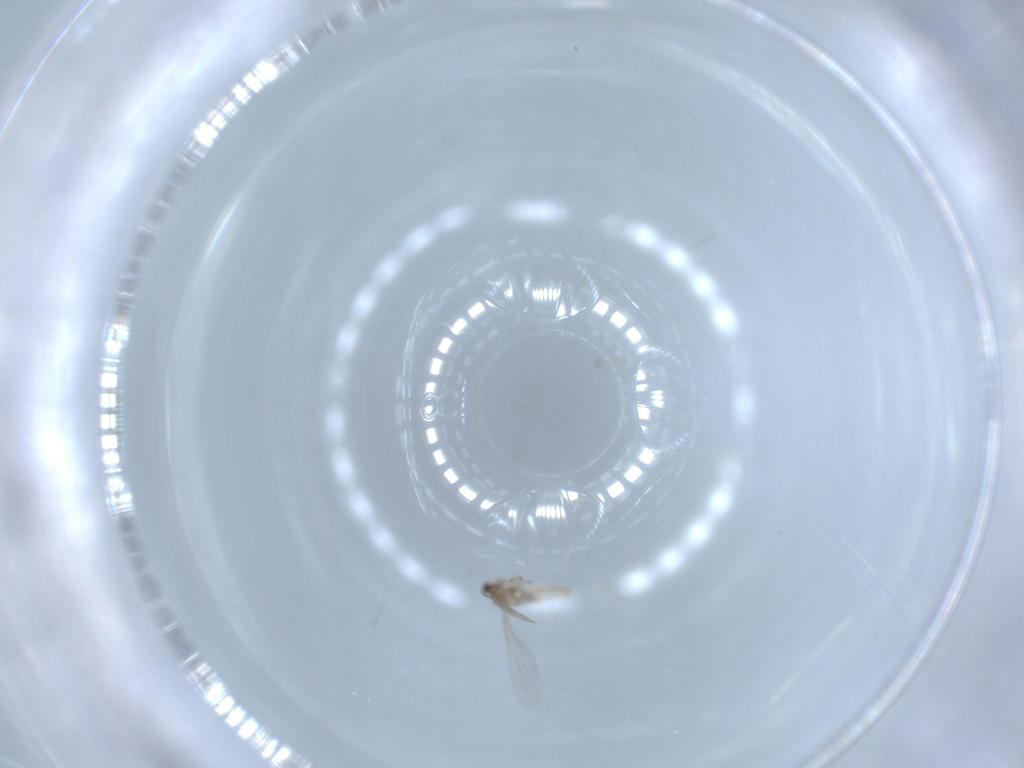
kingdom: Animalia
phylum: Arthropoda
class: Insecta
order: Diptera
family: Cecidomyiidae
